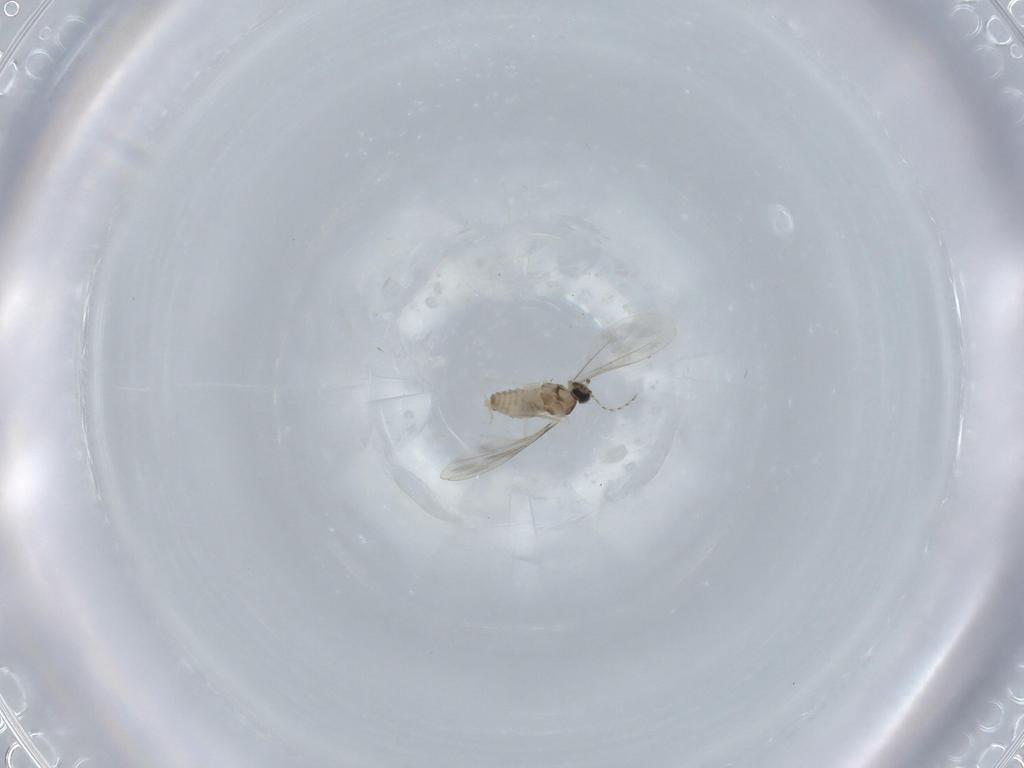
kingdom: Animalia
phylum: Arthropoda
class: Insecta
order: Diptera
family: Cecidomyiidae
